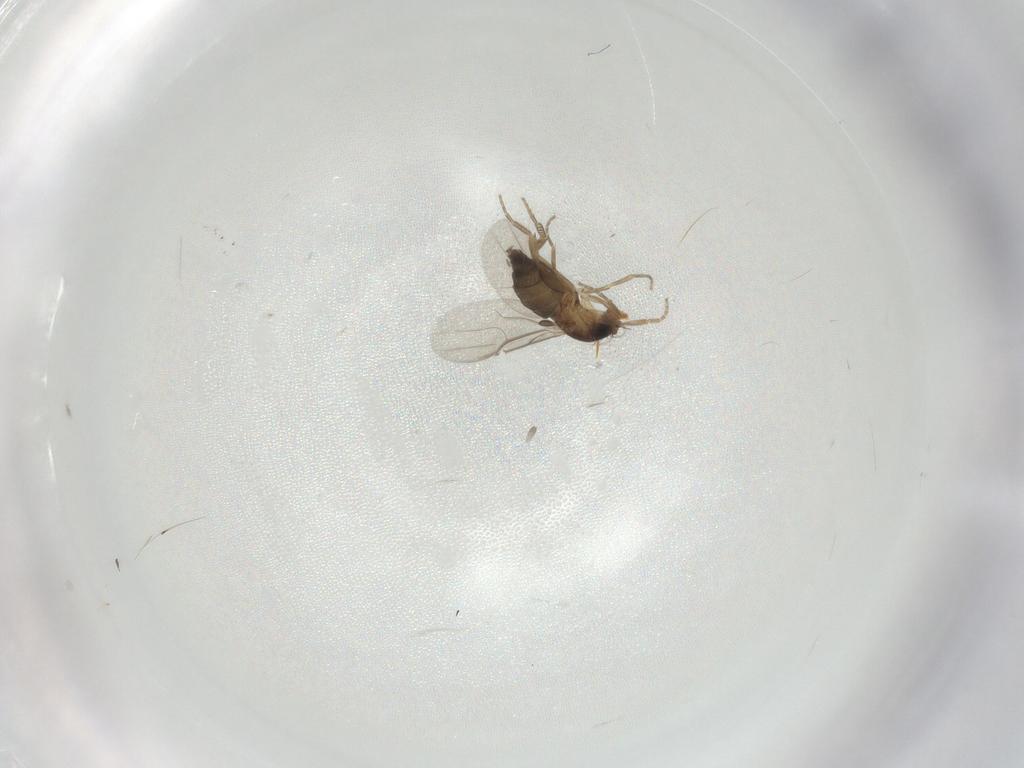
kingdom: Animalia
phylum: Arthropoda
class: Insecta
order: Diptera
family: Phoridae
